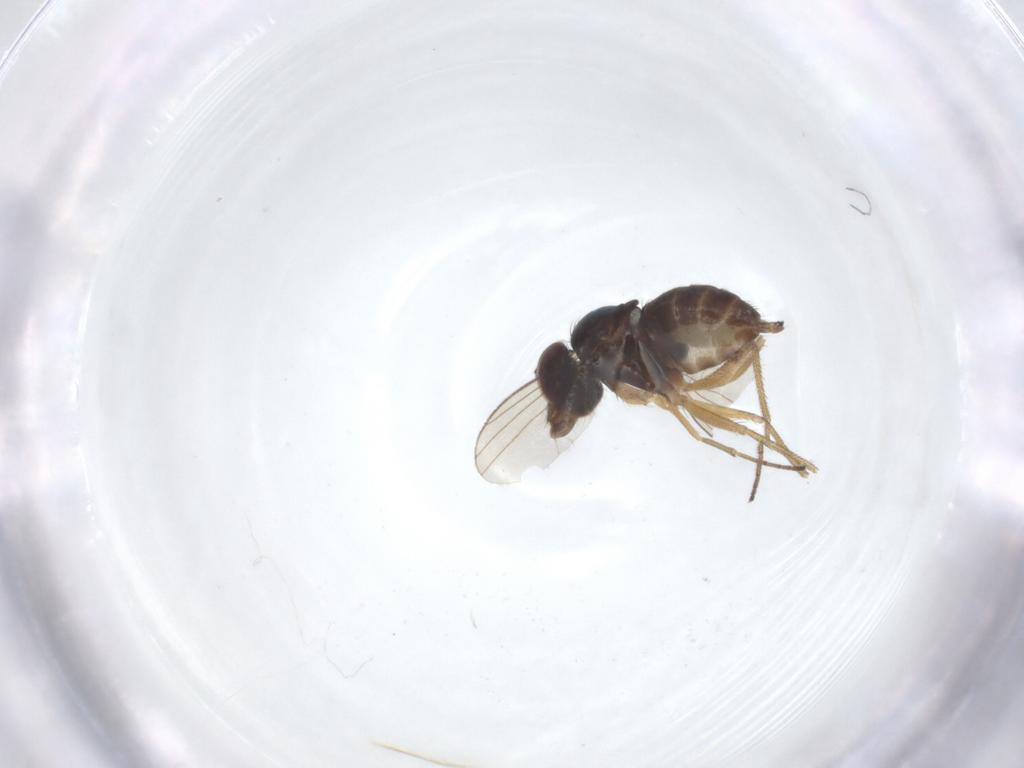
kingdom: Animalia
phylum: Arthropoda
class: Insecta
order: Diptera
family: Dolichopodidae
